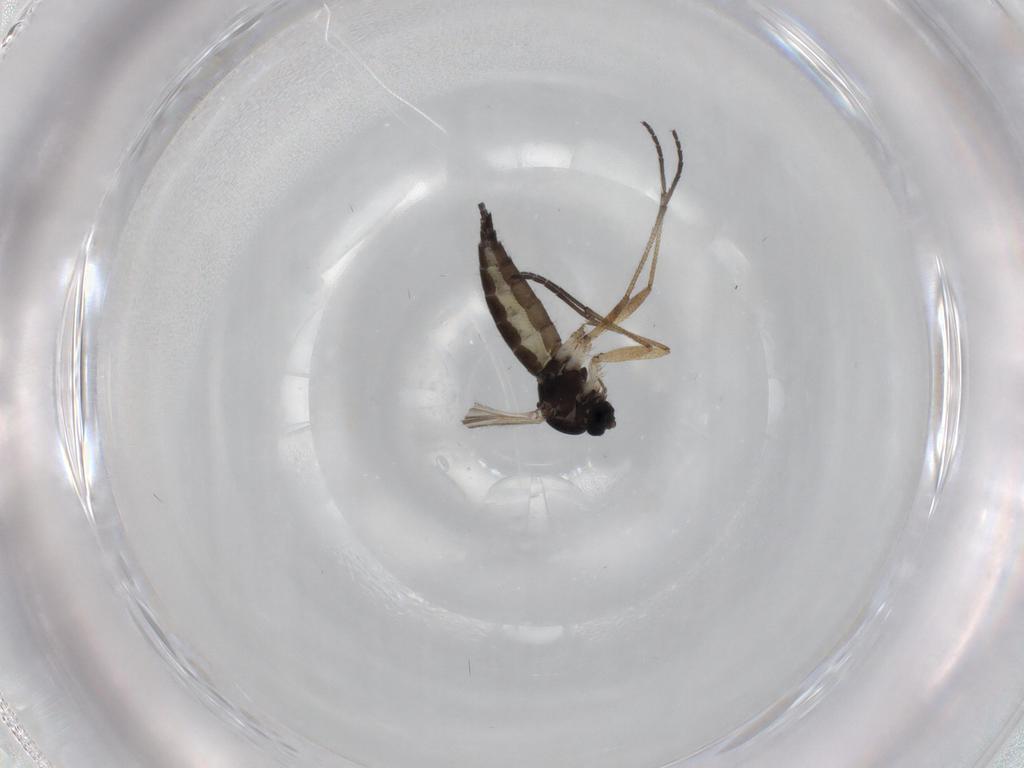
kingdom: Animalia
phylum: Arthropoda
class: Insecta
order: Diptera
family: Sciaridae
